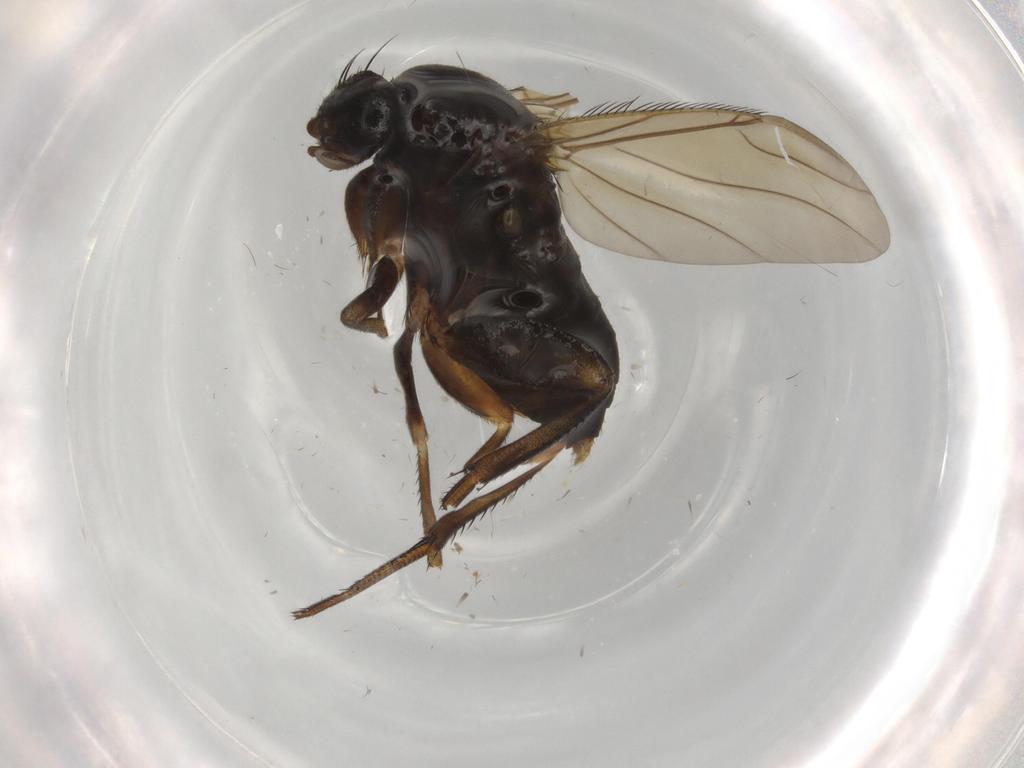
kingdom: Animalia
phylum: Arthropoda
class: Insecta
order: Diptera
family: Phoridae
